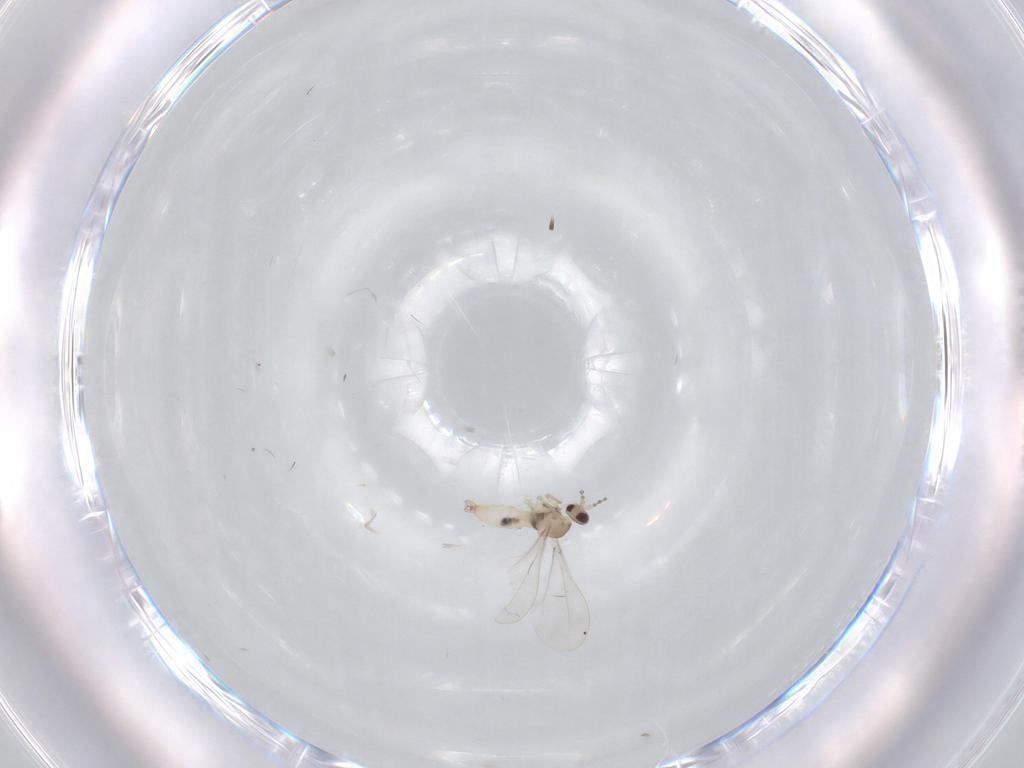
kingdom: Animalia
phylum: Arthropoda
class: Insecta
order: Diptera
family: Cecidomyiidae
